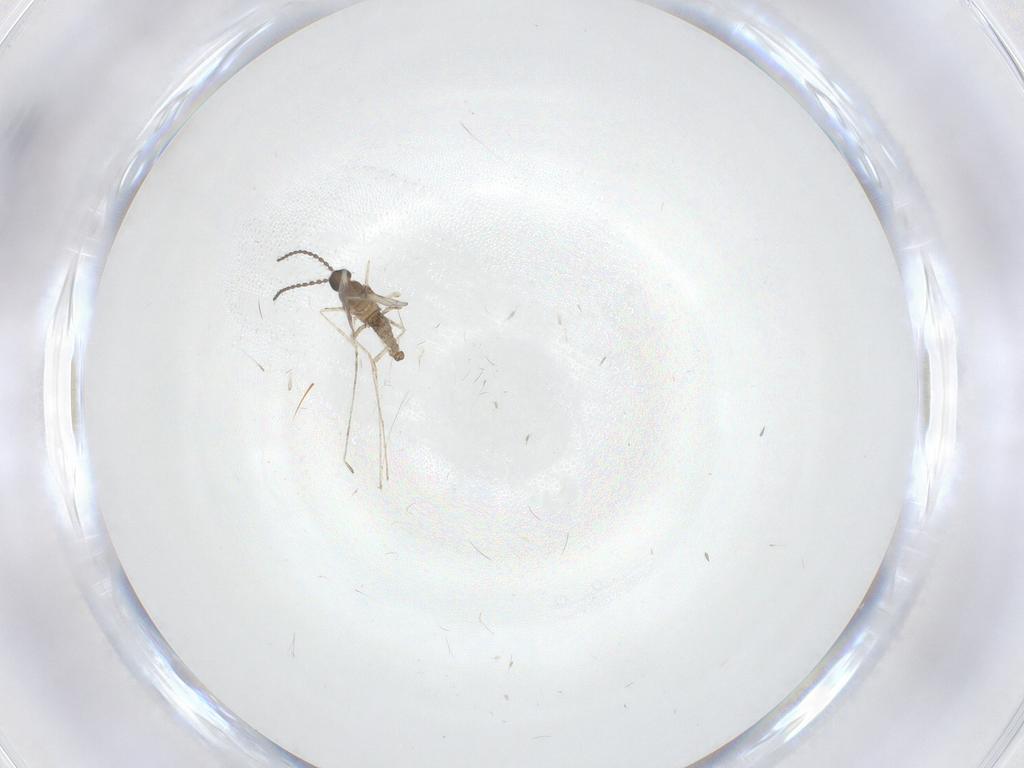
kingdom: Animalia
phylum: Arthropoda
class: Insecta
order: Diptera
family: Cecidomyiidae
